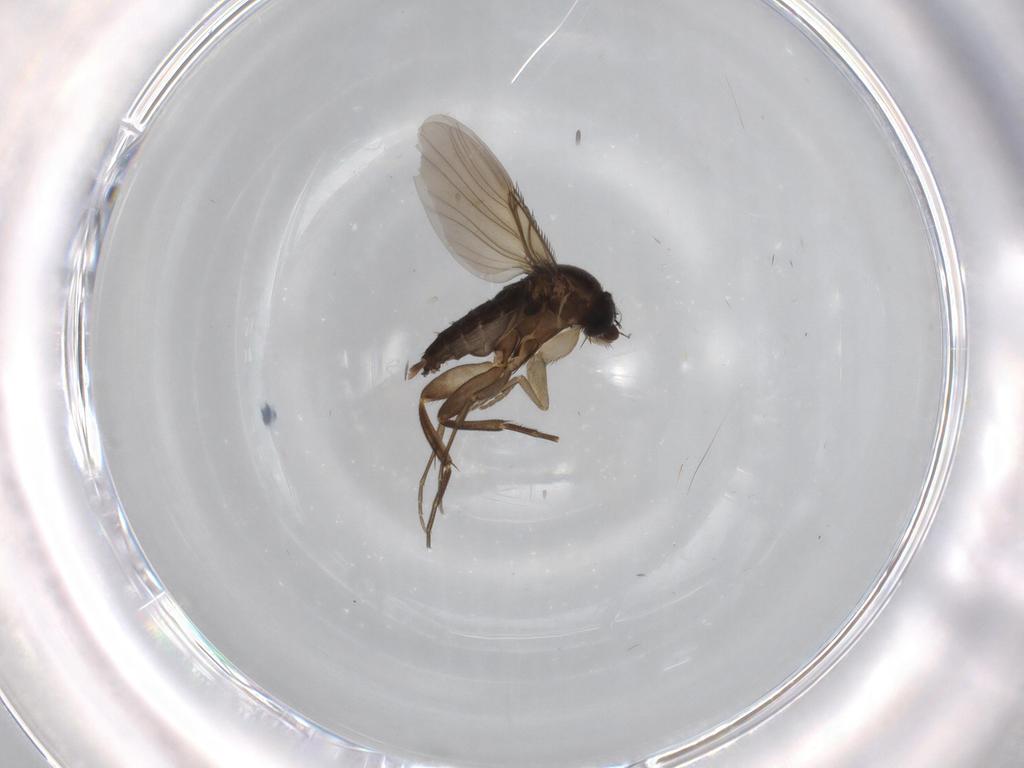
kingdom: Animalia
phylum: Arthropoda
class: Insecta
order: Diptera
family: Phoridae
